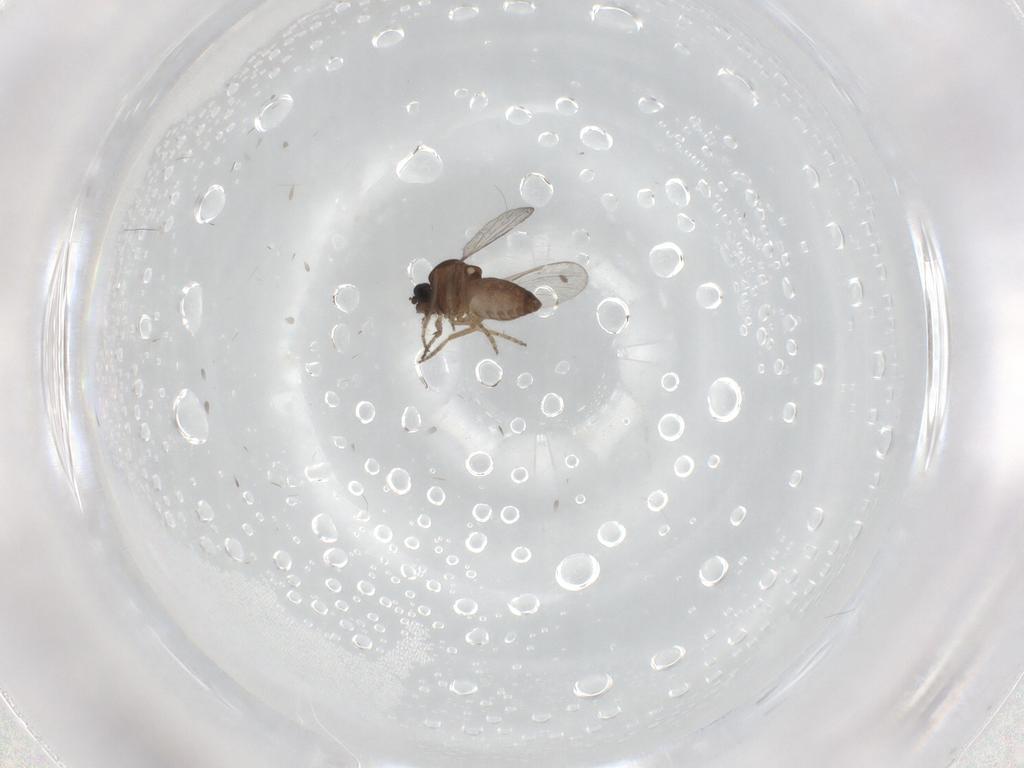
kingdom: Animalia
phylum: Arthropoda
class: Insecta
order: Diptera
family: Ceratopogonidae
